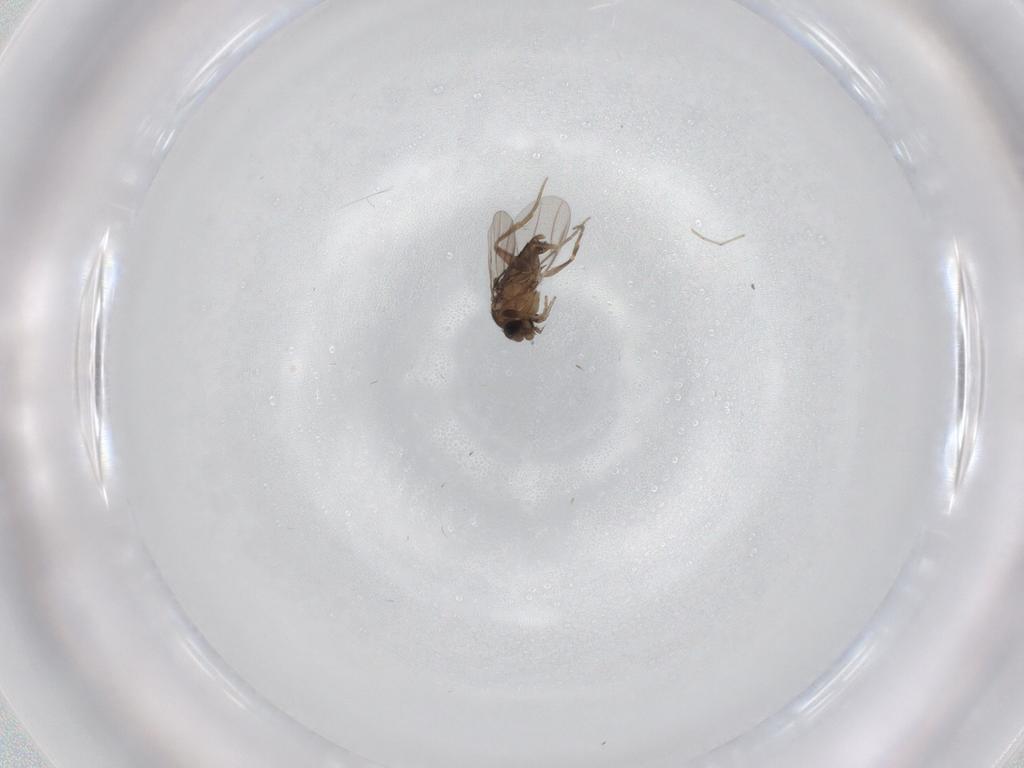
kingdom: Animalia
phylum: Arthropoda
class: Insecta
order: Diptera
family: Phoridae
